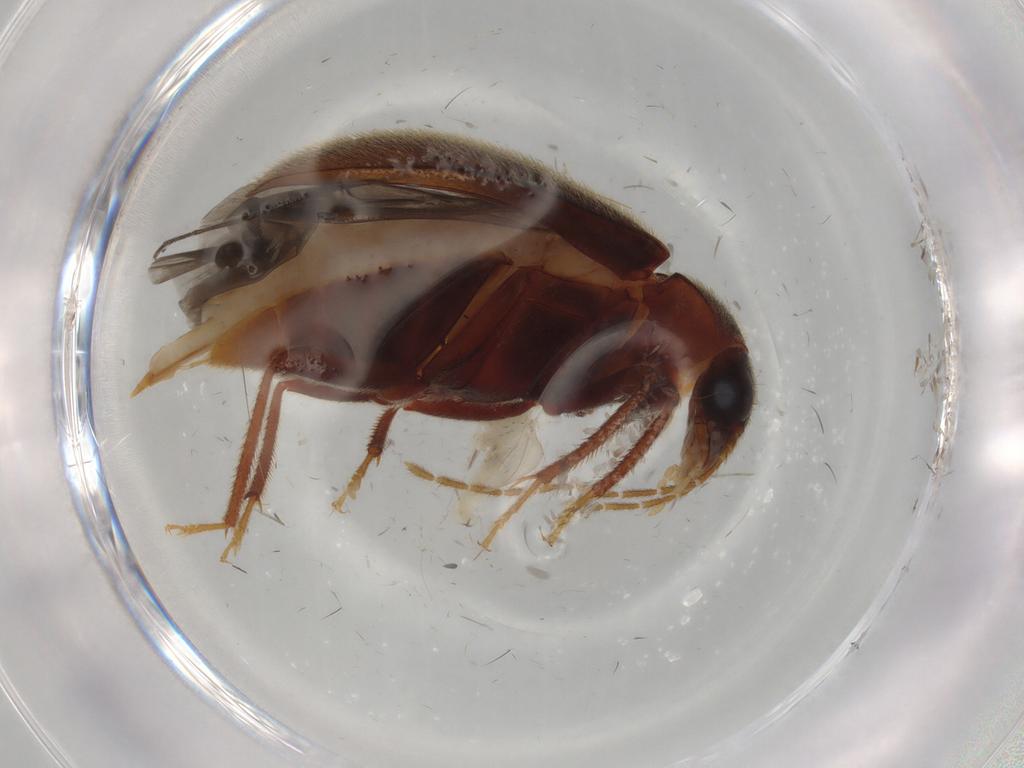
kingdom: Animalia
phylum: Arthropoda
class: Insecta
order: Coleoptera
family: Ptilodactylidae
